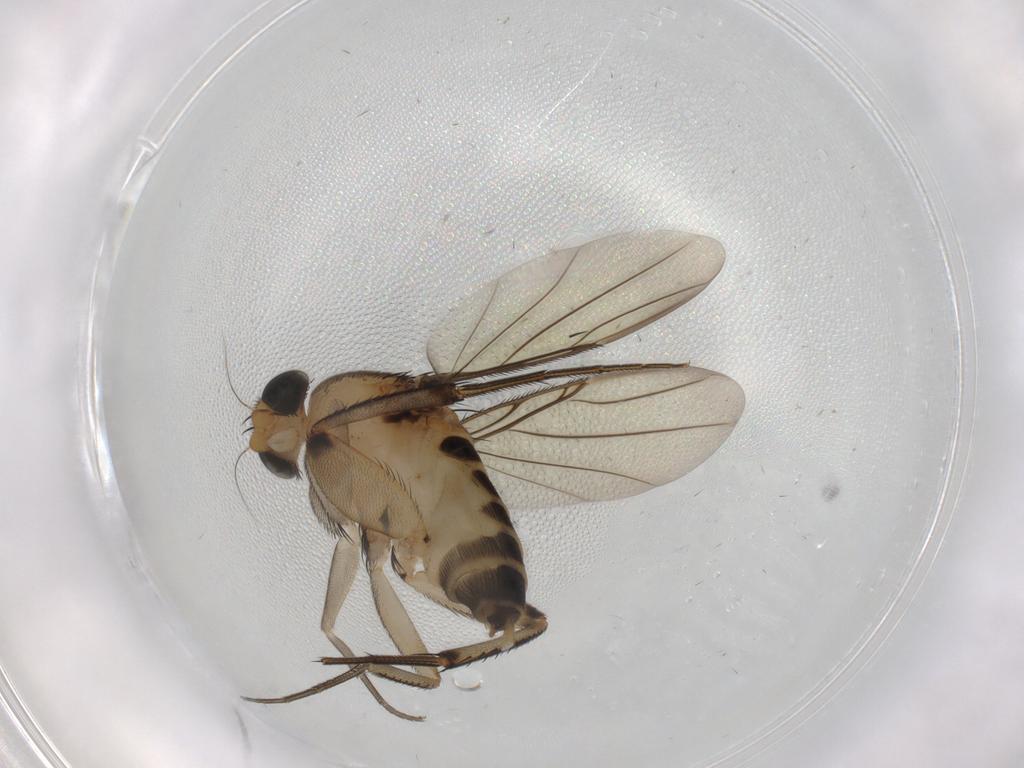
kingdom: Animalia
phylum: Arthropoda
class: Insecta
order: Diptera
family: Phoridae
